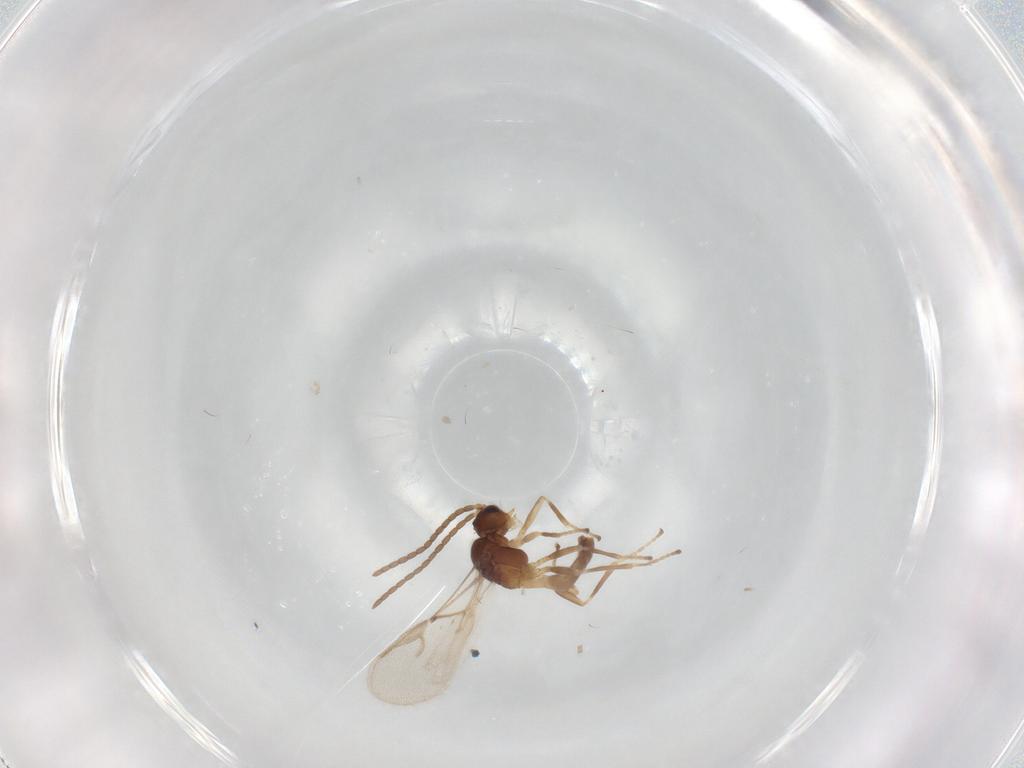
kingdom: Animalia
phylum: Arthropoda
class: Insecta
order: Hymenoptera
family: Braconidae
